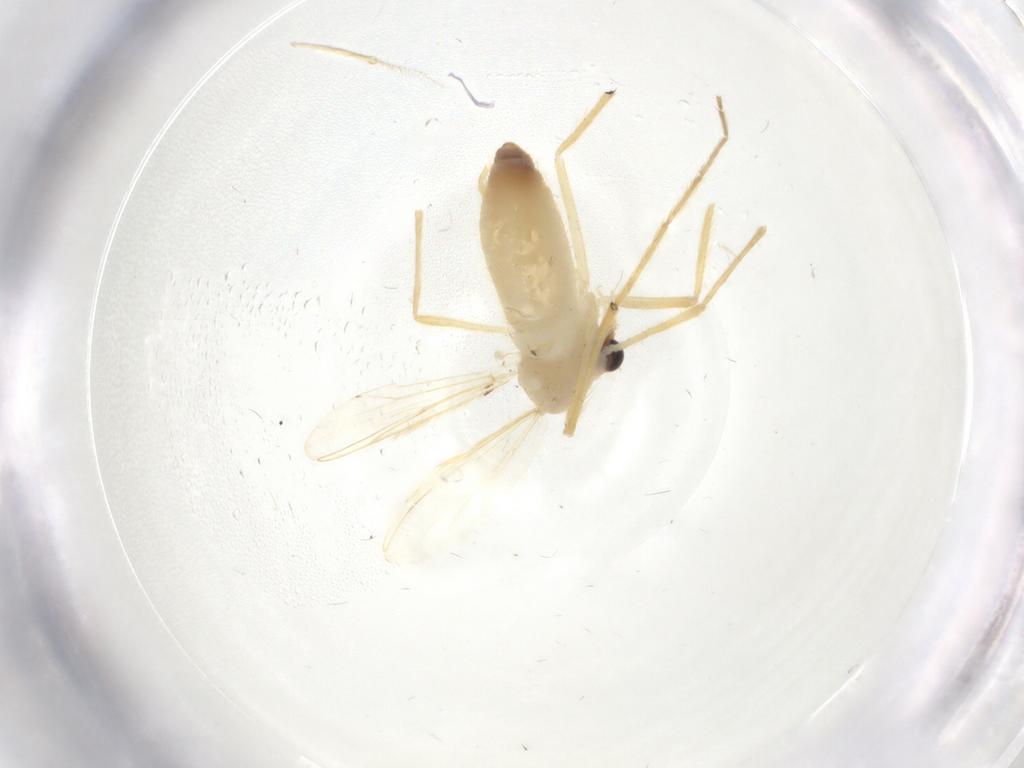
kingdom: Animalia
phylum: Arthropoda
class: Insecta
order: Diptera
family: Chironomidae
